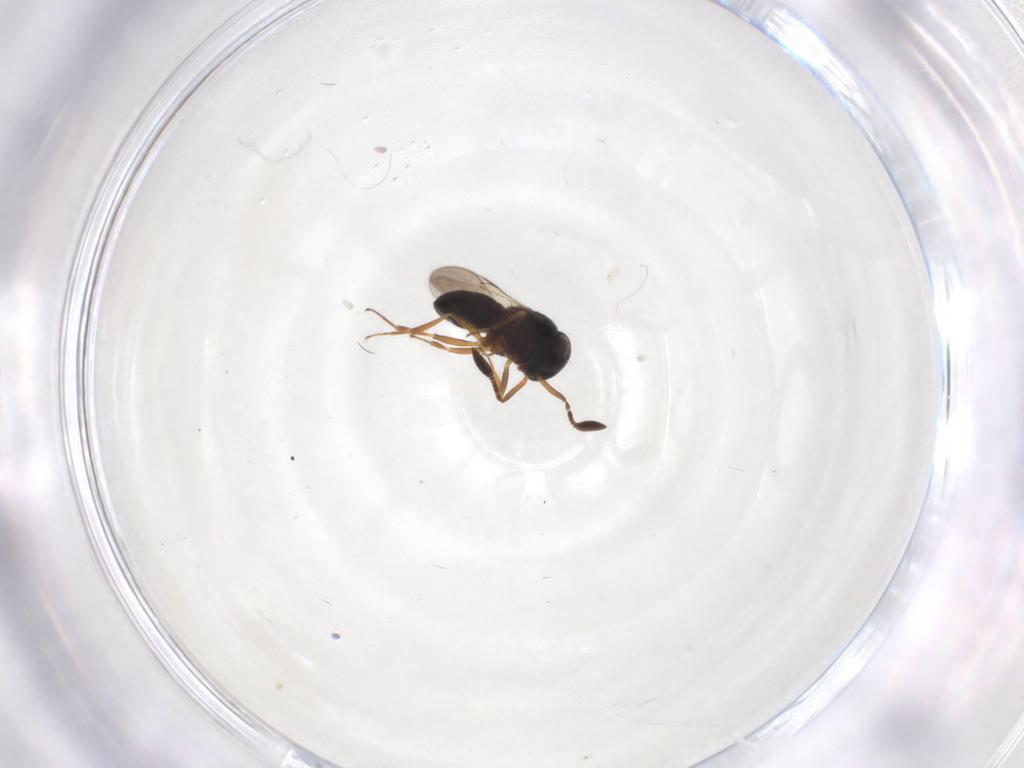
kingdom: Animalia
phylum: Arthropoda
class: Insecta
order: Hymenoptera
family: Scelionidae
